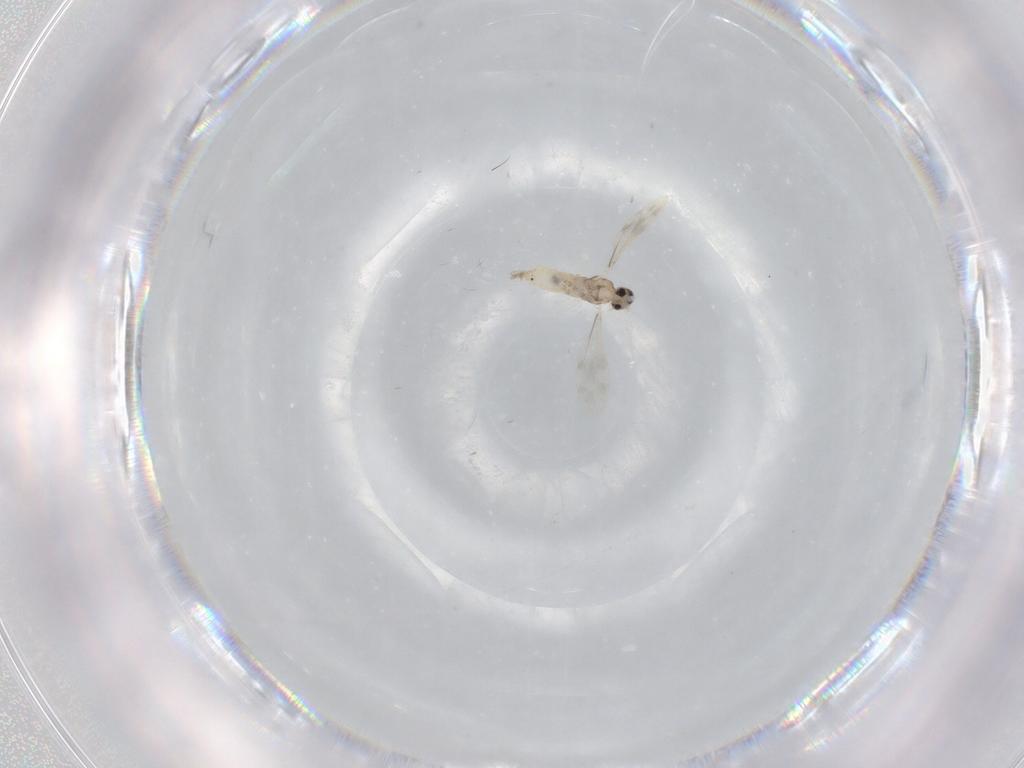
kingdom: Animalia
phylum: Arthropoda
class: Insecta
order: Diptera
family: Cecidomyiidae
